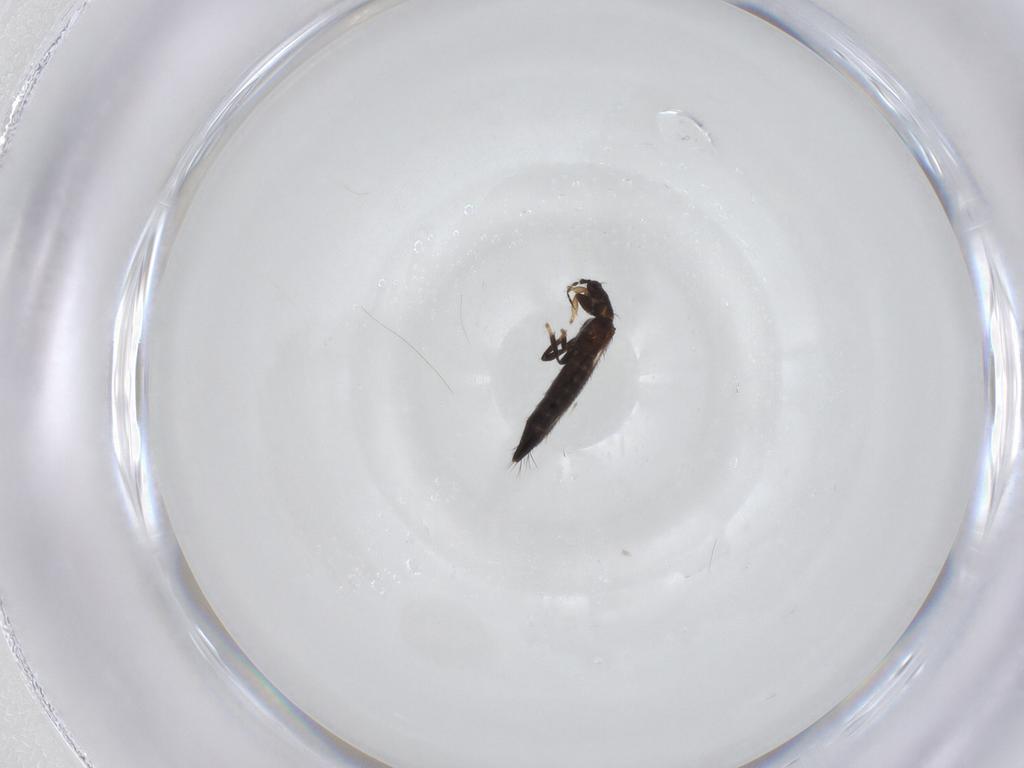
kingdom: Animalia
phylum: Arthropoda
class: Insecta
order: Thysanoptera
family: Thripidae
